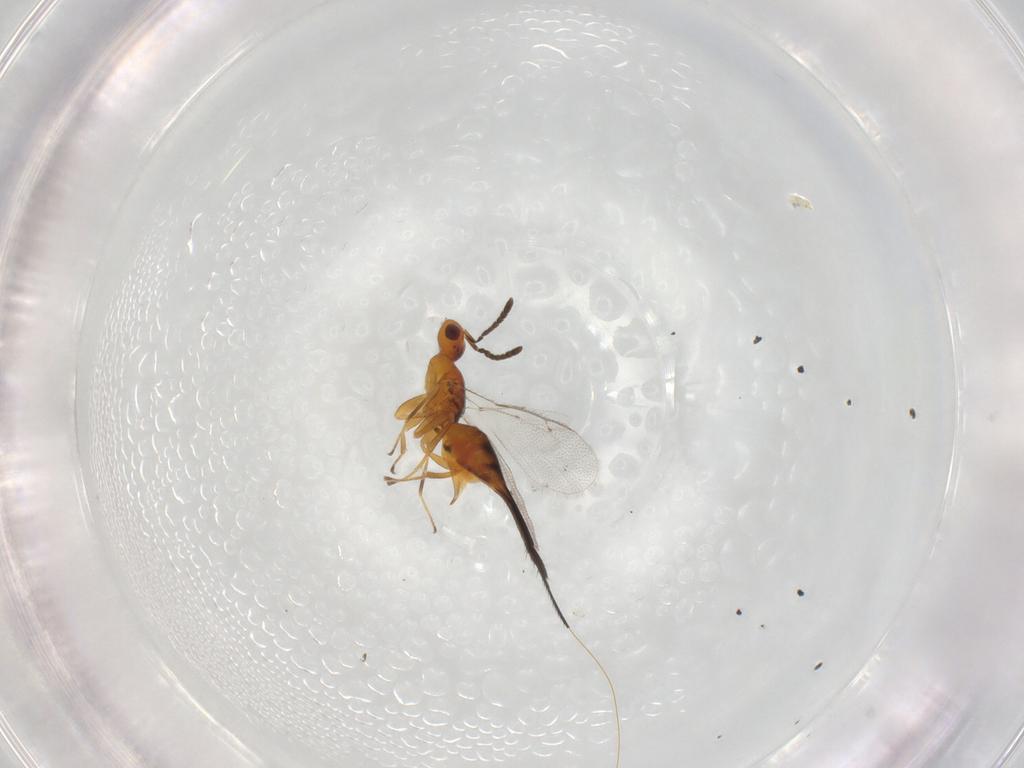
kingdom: Animalia
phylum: Arthropoda
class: Insecta
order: Hymenoptera
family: Pteromalidae
